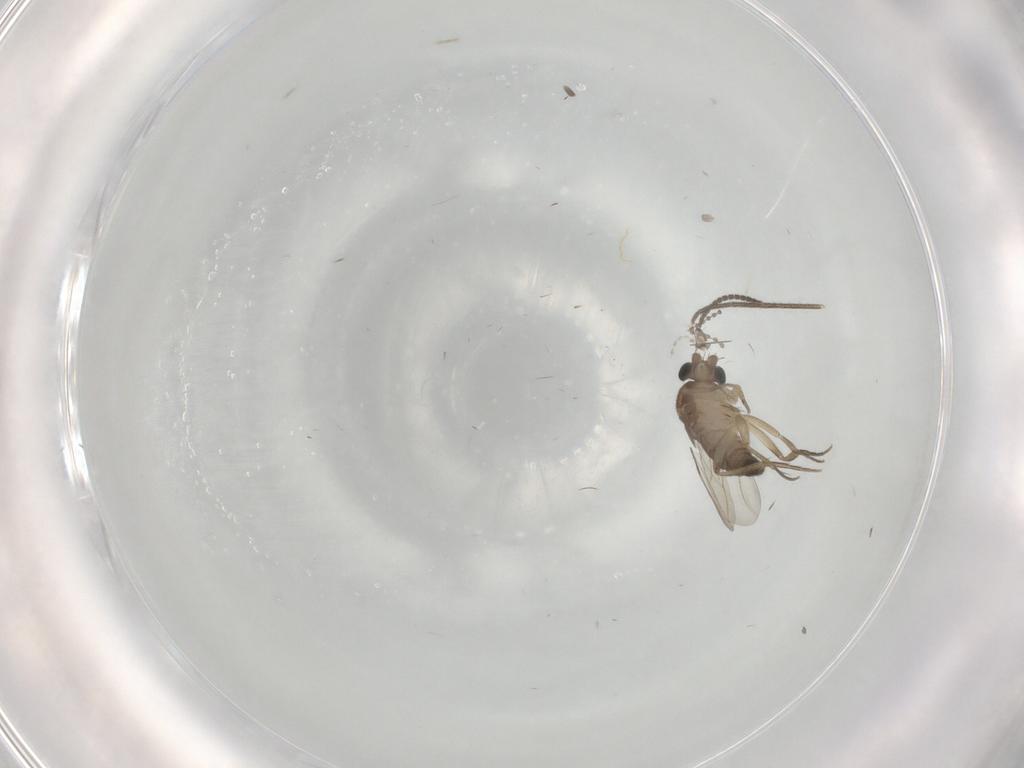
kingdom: Animalia
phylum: Arthropoda
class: Insecta
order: Diptera
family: Cecidomyiidae
